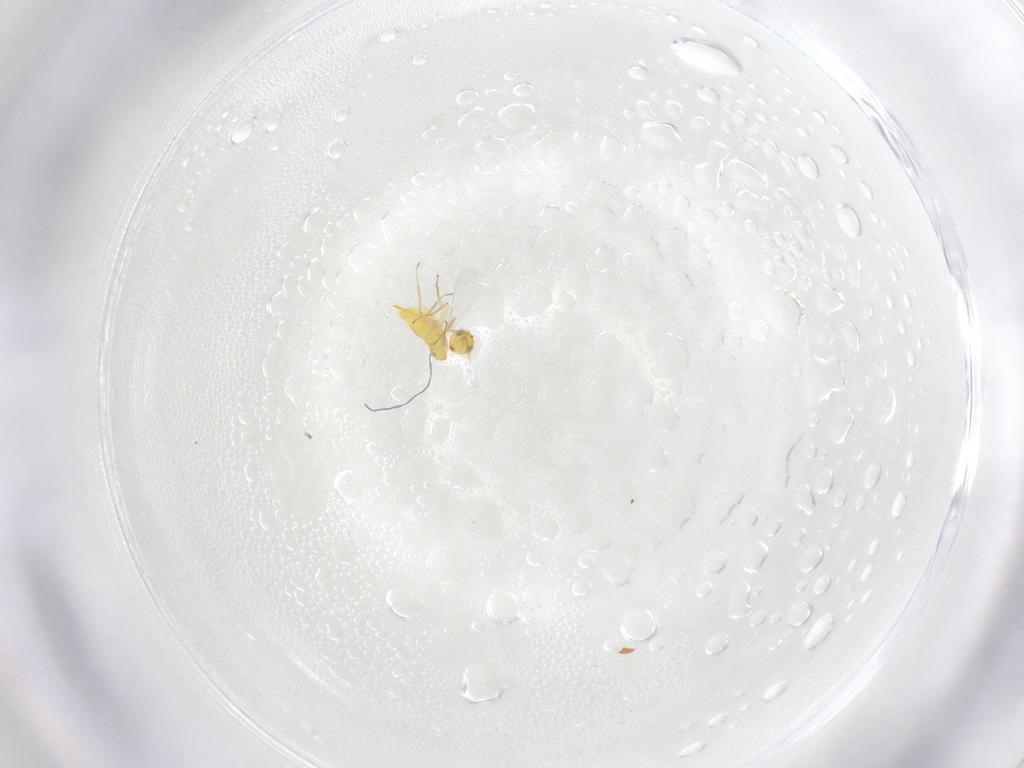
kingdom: Animalia
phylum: Arthropoda
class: Insecta
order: Hymenoptera
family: Aphelinidae
